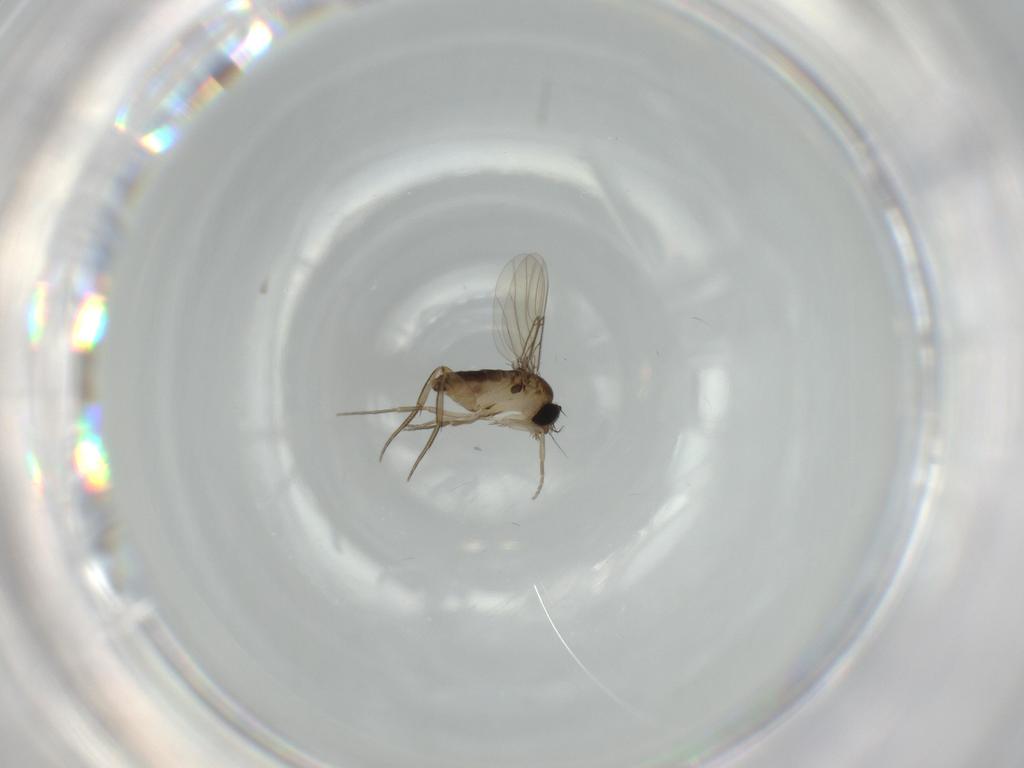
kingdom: Animalia
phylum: Arthropoda
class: Insecta
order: Diptera
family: Phoridae
